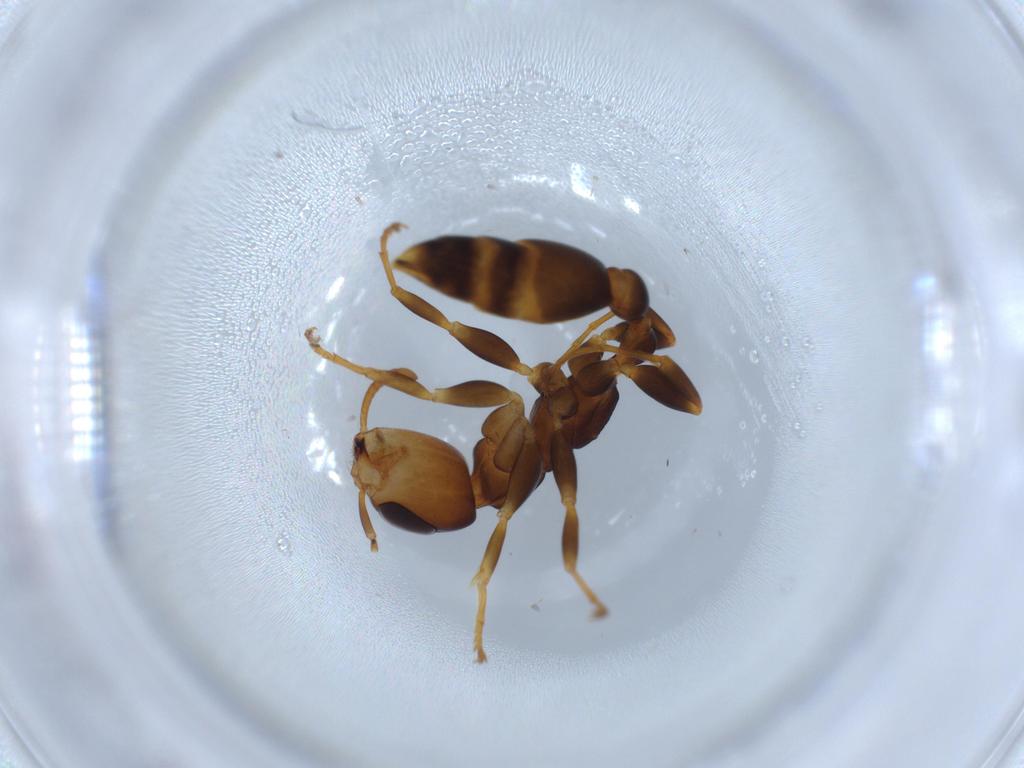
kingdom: Animalia
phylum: Arthropoda
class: Insecta
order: Hymenoptera
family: Formicidae
